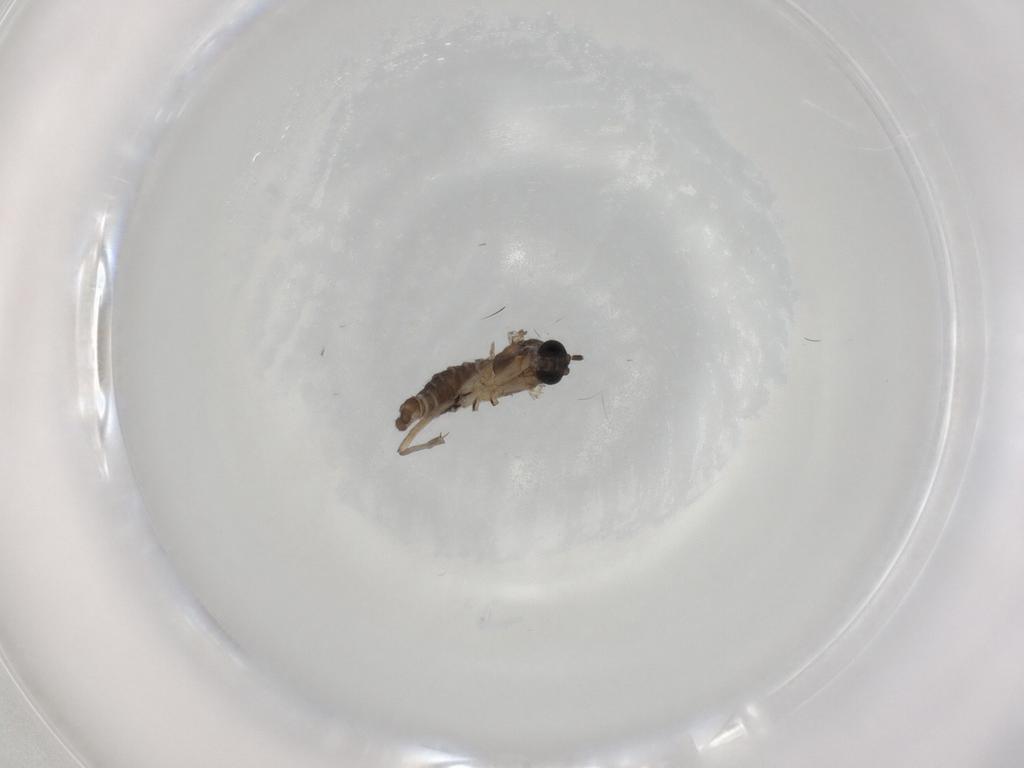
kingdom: Animalia
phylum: Arthropoda
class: Insecta
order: Diptera
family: Sciaridae
